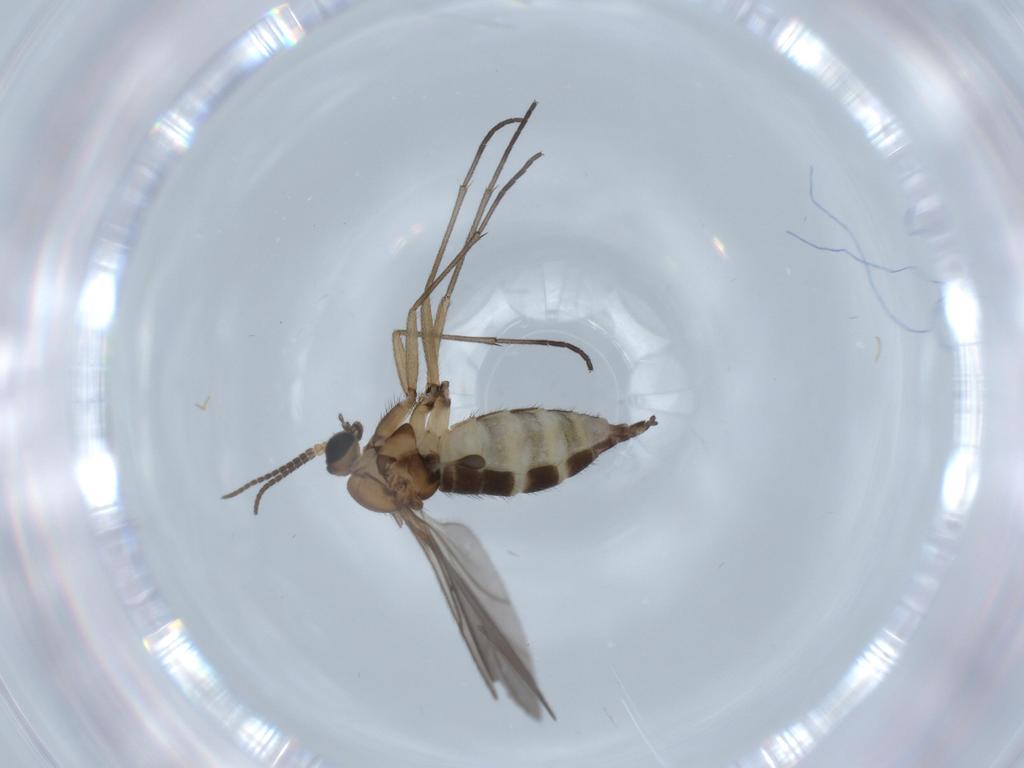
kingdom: Animalia
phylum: Arthropoda
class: Insecta
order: Diptera
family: Sciaridae
